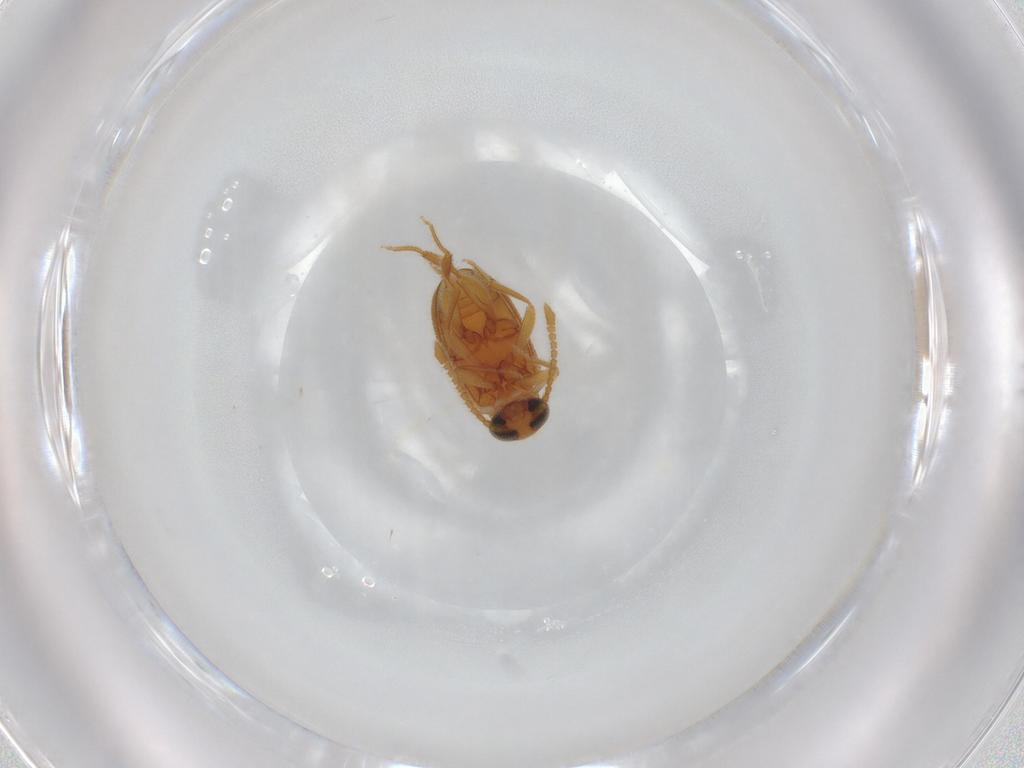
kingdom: Animalia
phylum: Arthropoda
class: Insecta
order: Coleoptera
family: Aderidae
